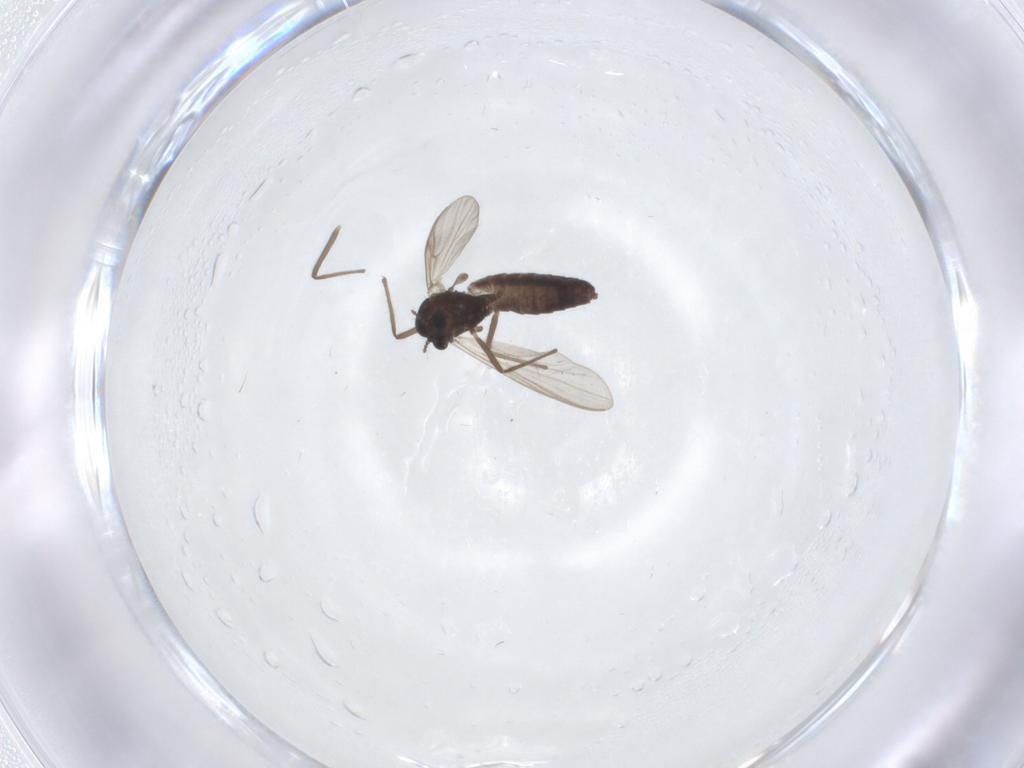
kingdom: Animalia
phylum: Arthropoda
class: Insecta
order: Diptera
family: Chironomidae
